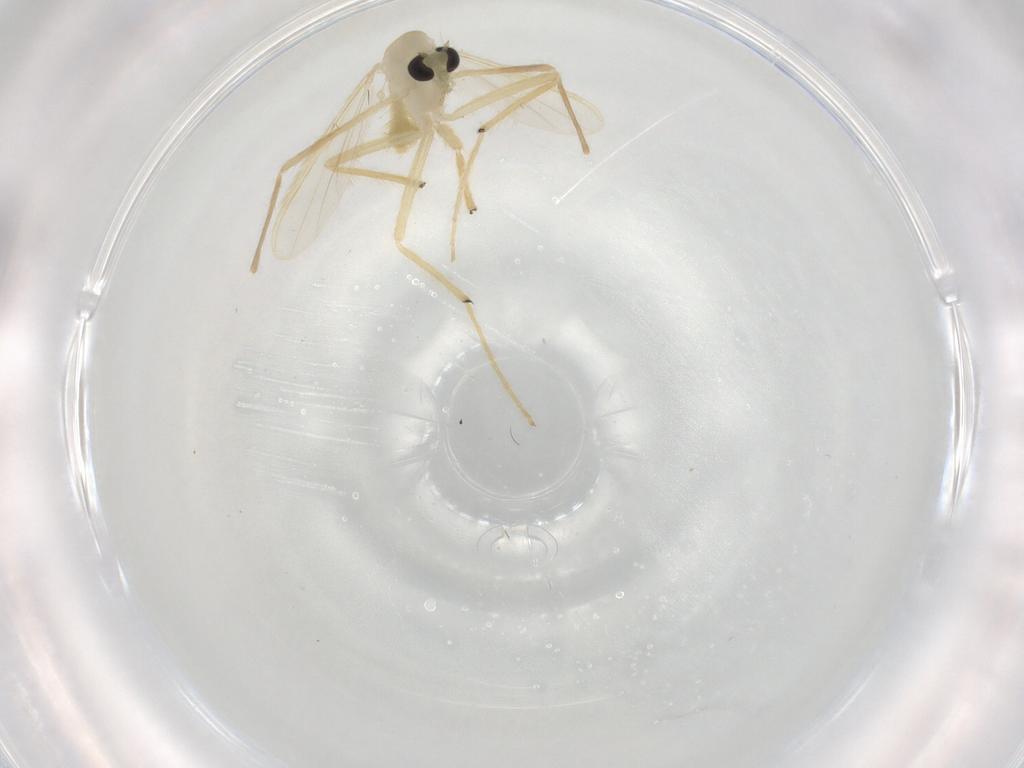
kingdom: Animalia
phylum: Arthropoda
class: Insecta
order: Diptera
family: Chironomidae
